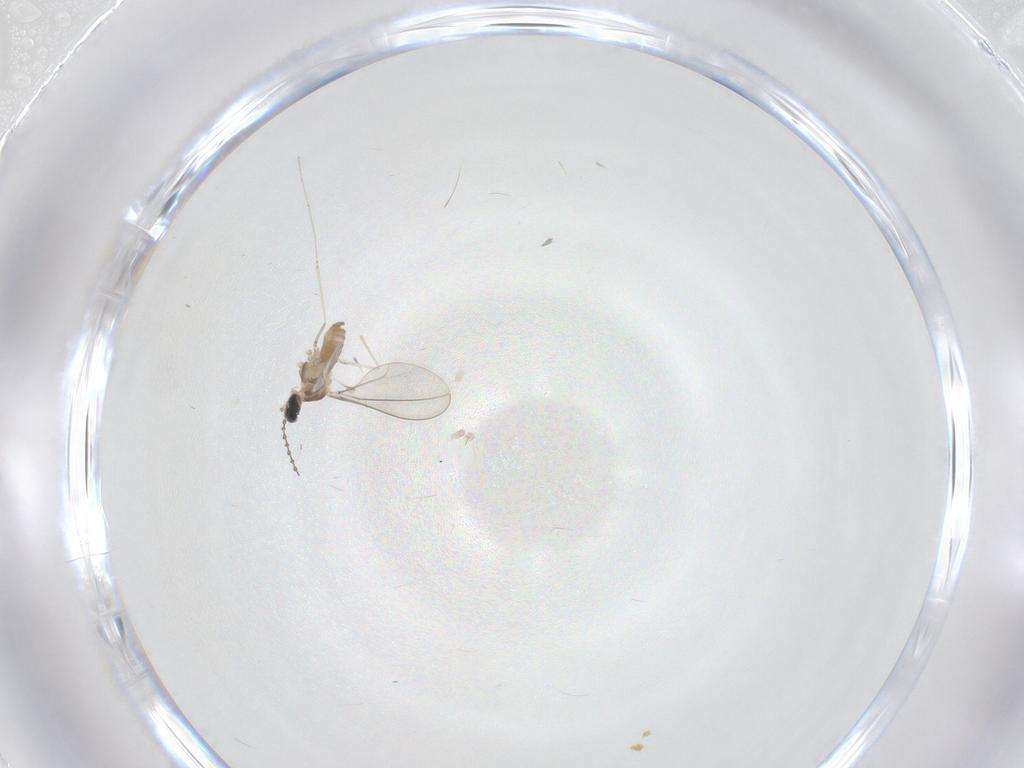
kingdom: Animalia
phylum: Arthropoda
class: Insecta
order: Diptera
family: Cecidomyiidae
